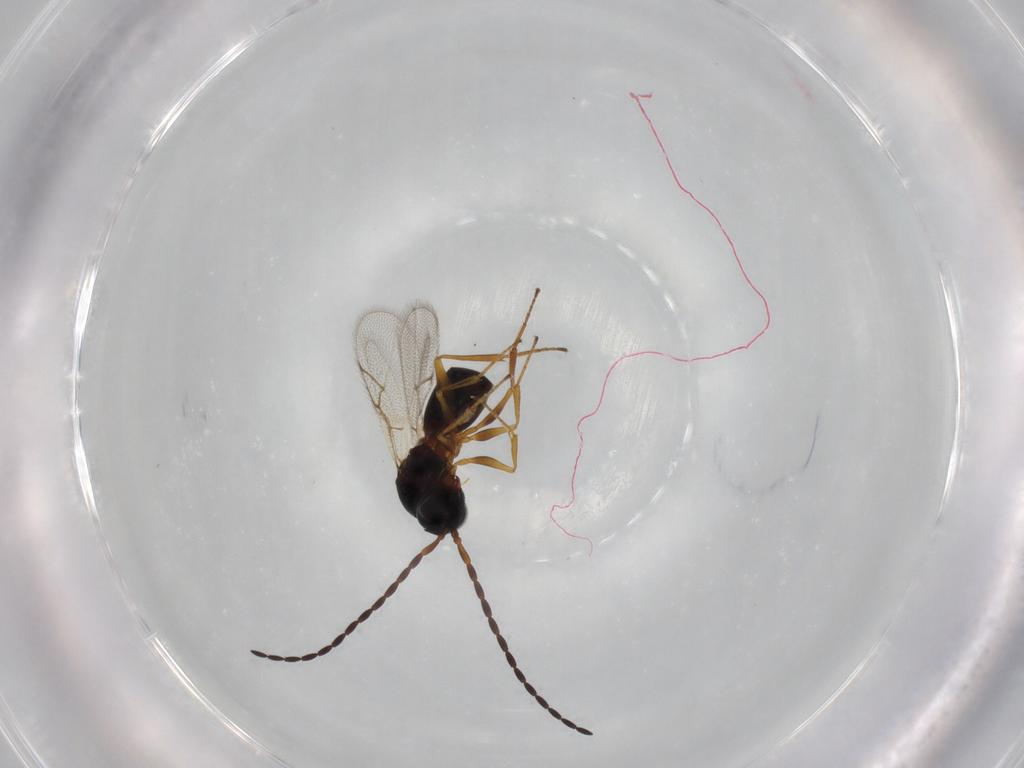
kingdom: Animalia
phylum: Arthropoda
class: Insecta
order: Hymenoptera
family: Figitidae
